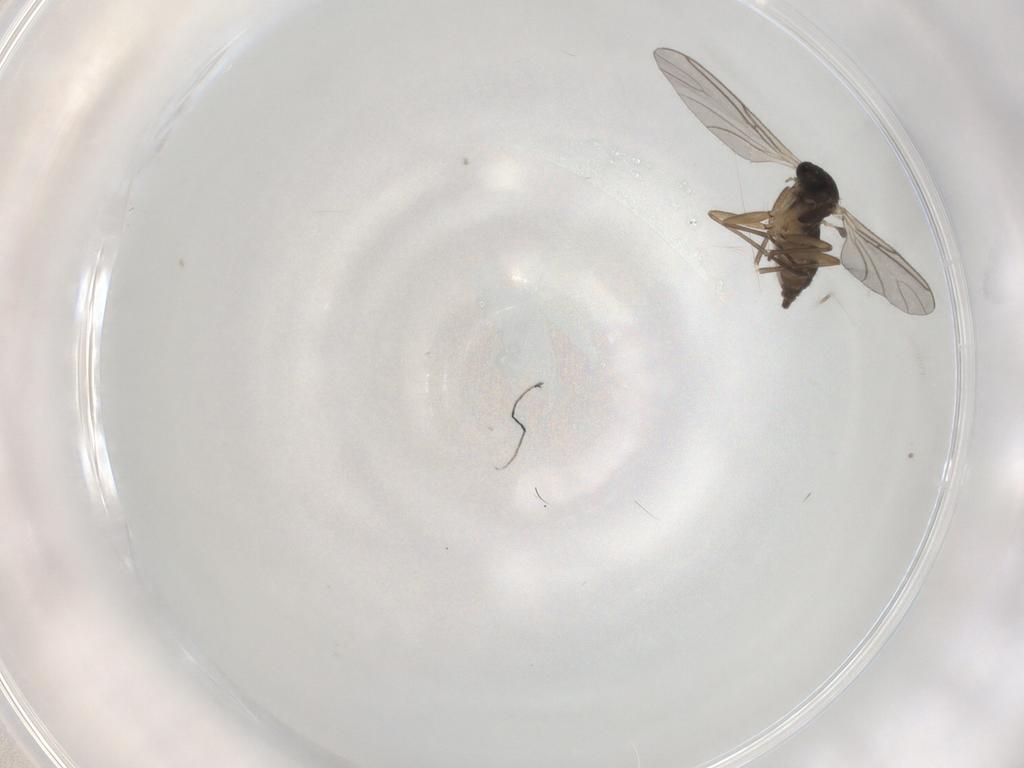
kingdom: Animalia
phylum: Arthropoda
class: Insecta
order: Diptera
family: Sciaridae
